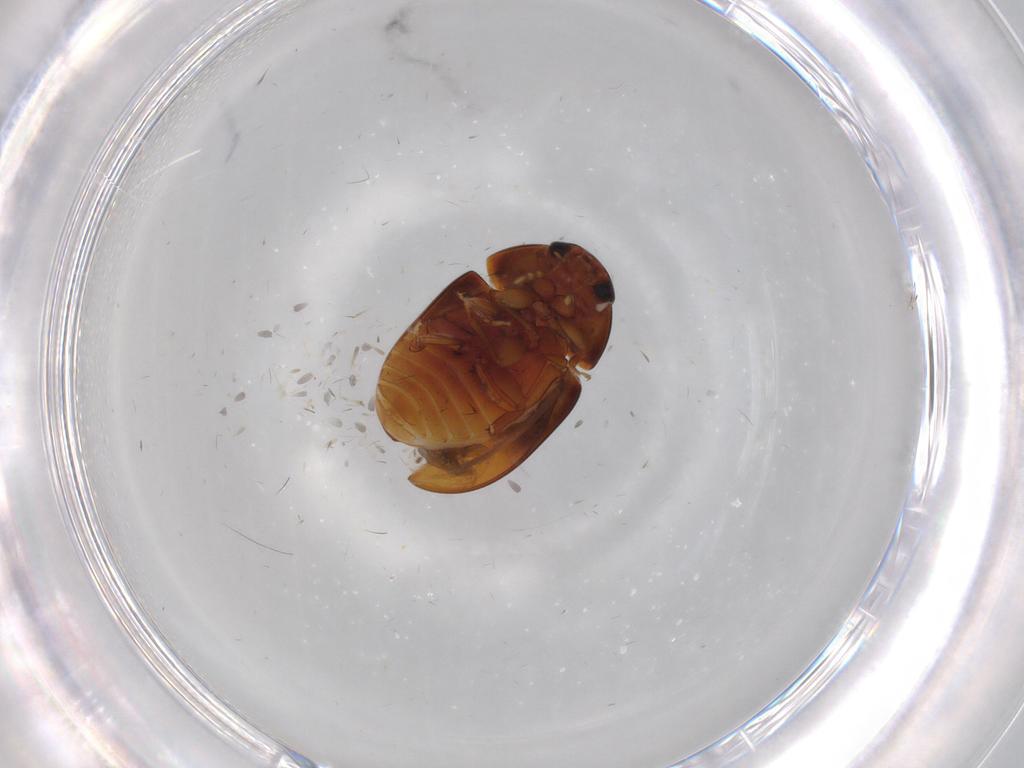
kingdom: Animalia
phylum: Arthropoda
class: Insecta
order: Coleoptera
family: Phalacridae
